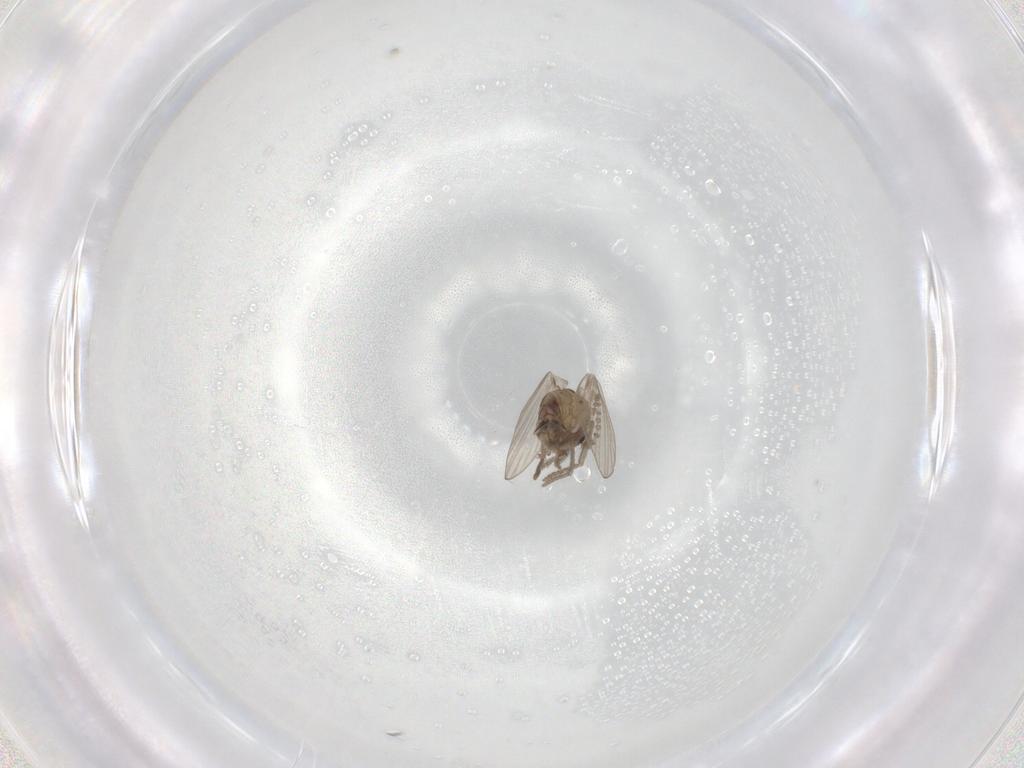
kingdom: Animalia
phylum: Arthropoda
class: Insecta
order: Diptera
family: Psychodidae
